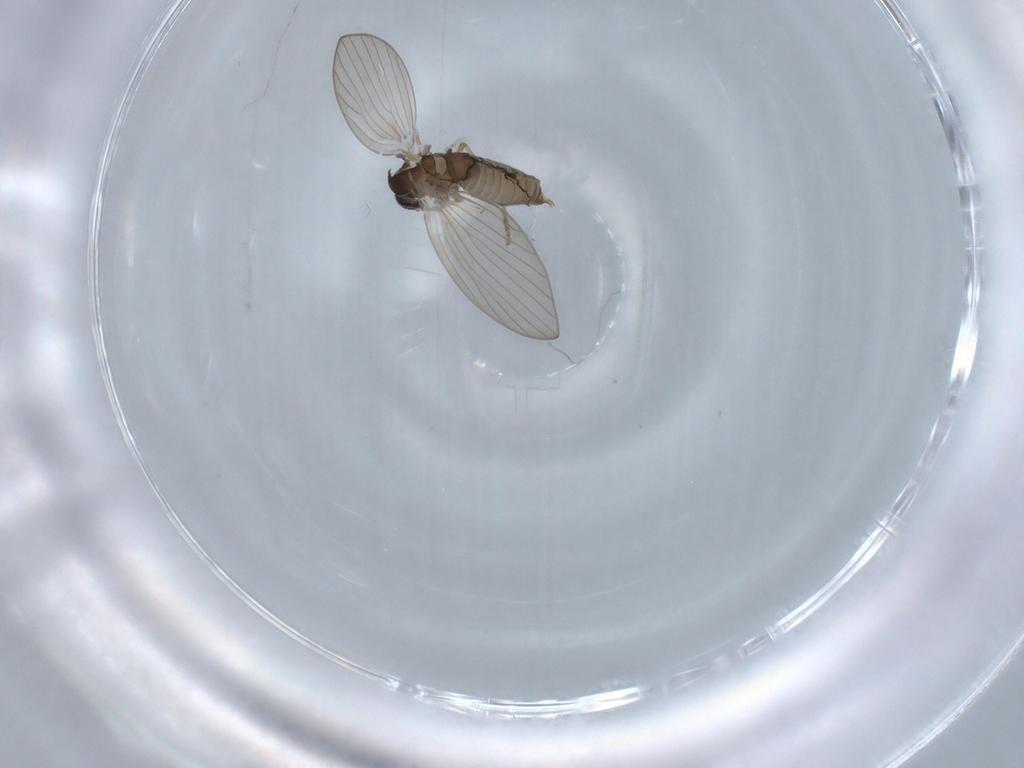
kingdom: Animalia
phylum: Arthropoda
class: Insecta
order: Diptera
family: Psychodidae
